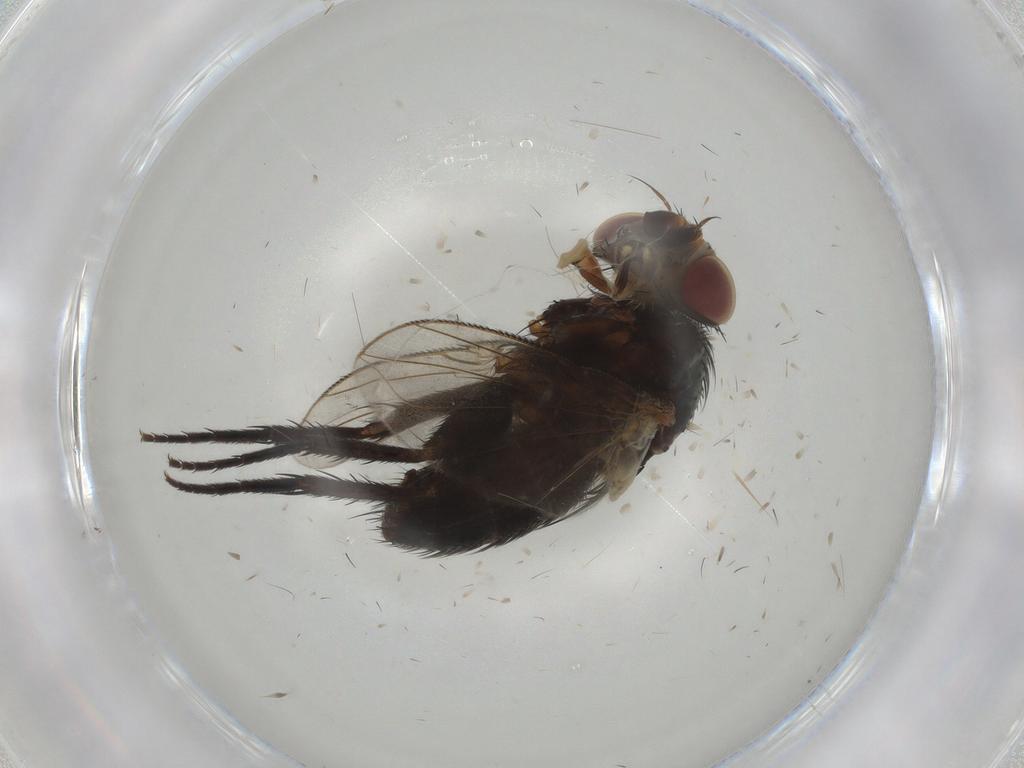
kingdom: Animalia
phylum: Arthropoda
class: Insecta
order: Diptera
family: Tachinidae
